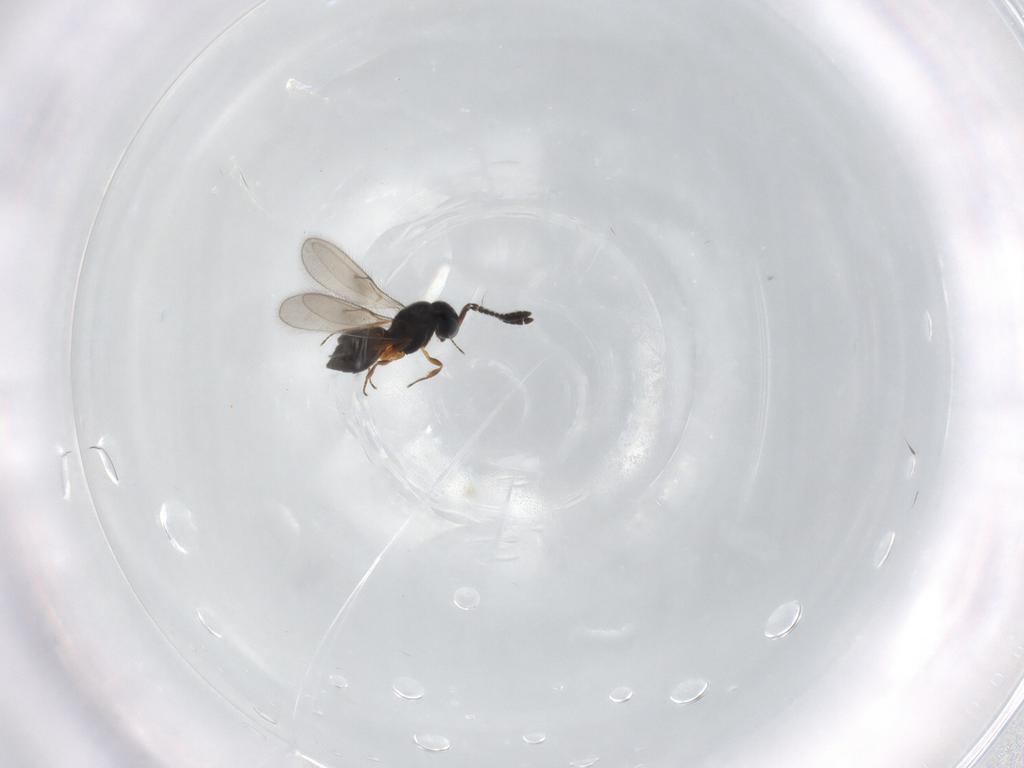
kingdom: Animalia
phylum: Arthropoda
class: Insecta
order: Hymenoptera
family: Scelionidae
